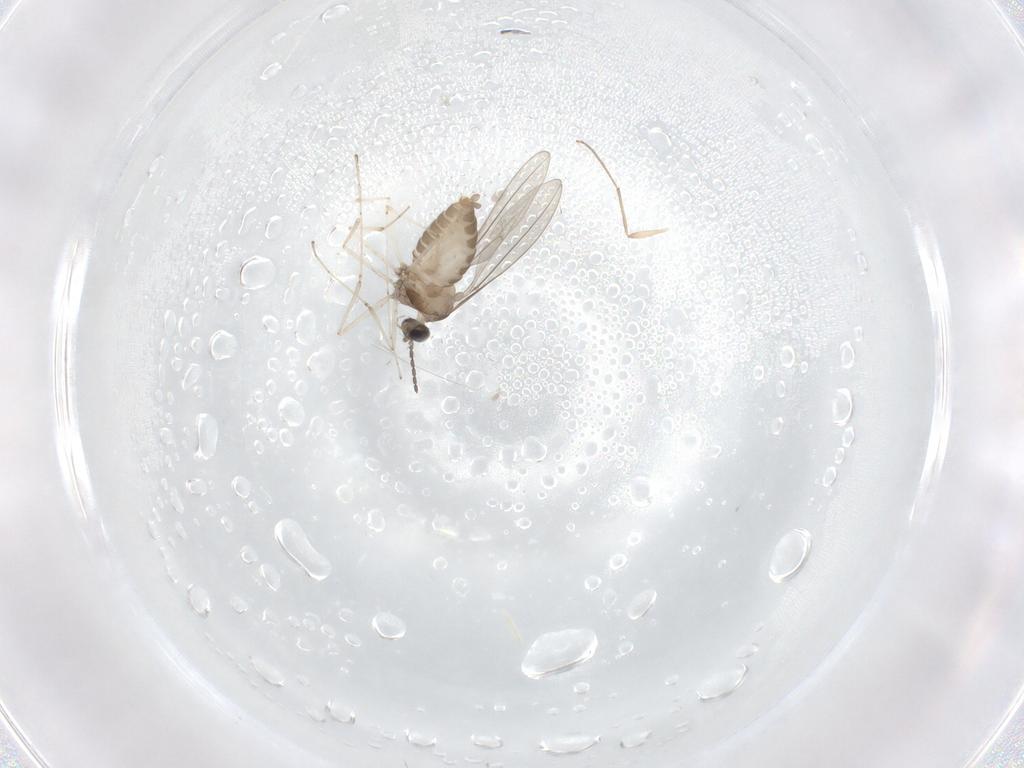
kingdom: Animalia
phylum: Arthropoda
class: Insecta
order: Diptera
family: Cecidomyiidae
